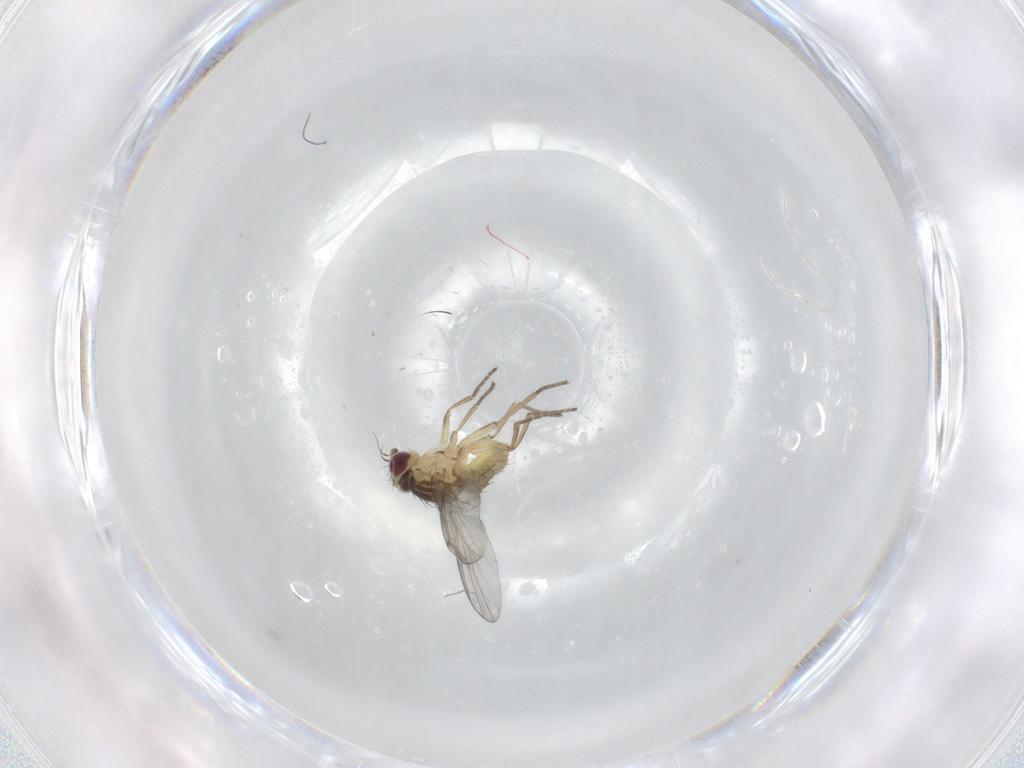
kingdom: Animalia
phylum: Arthropoda
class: Insecta
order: Diptera
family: Agromyzidae
